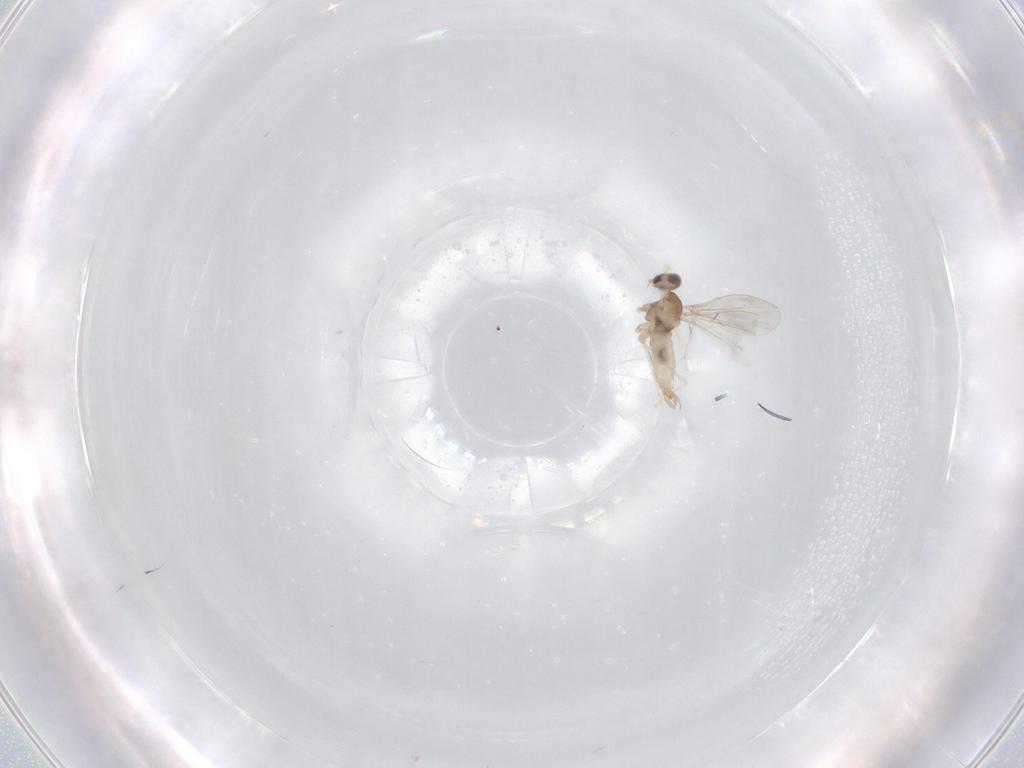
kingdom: Animalia
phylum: Arthropoda
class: Insecta
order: Diptera
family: Cecidomyiidae
